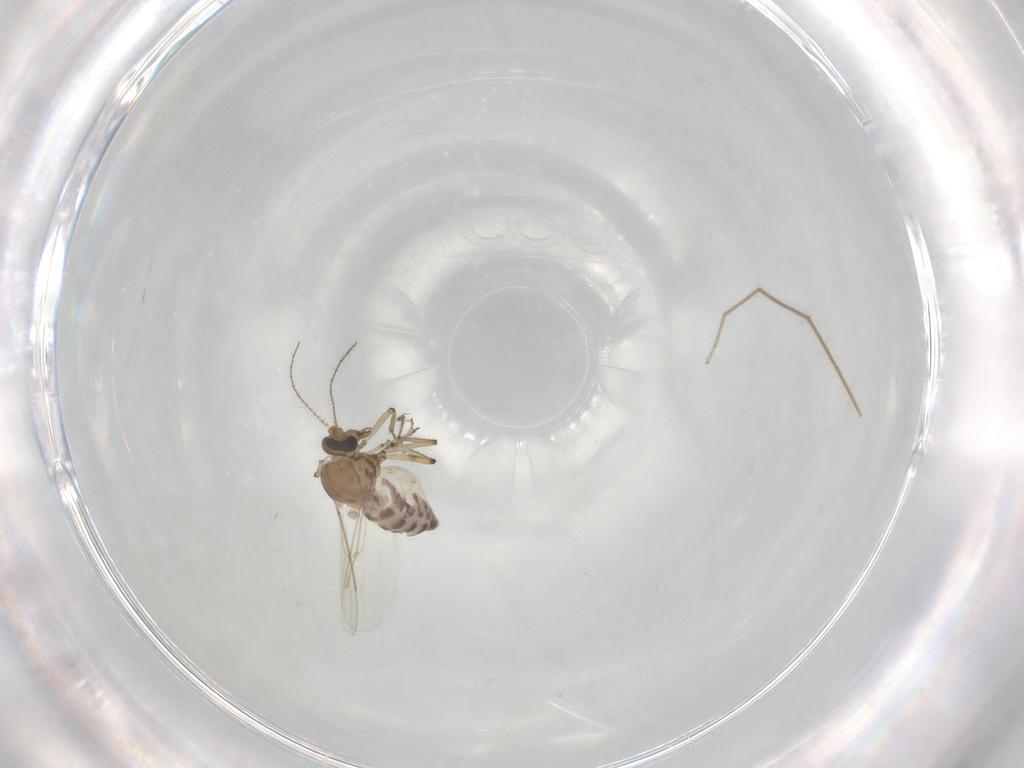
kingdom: Animalia
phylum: Arthropoda
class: Insecta
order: Diptera
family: Ceratopogonidae
